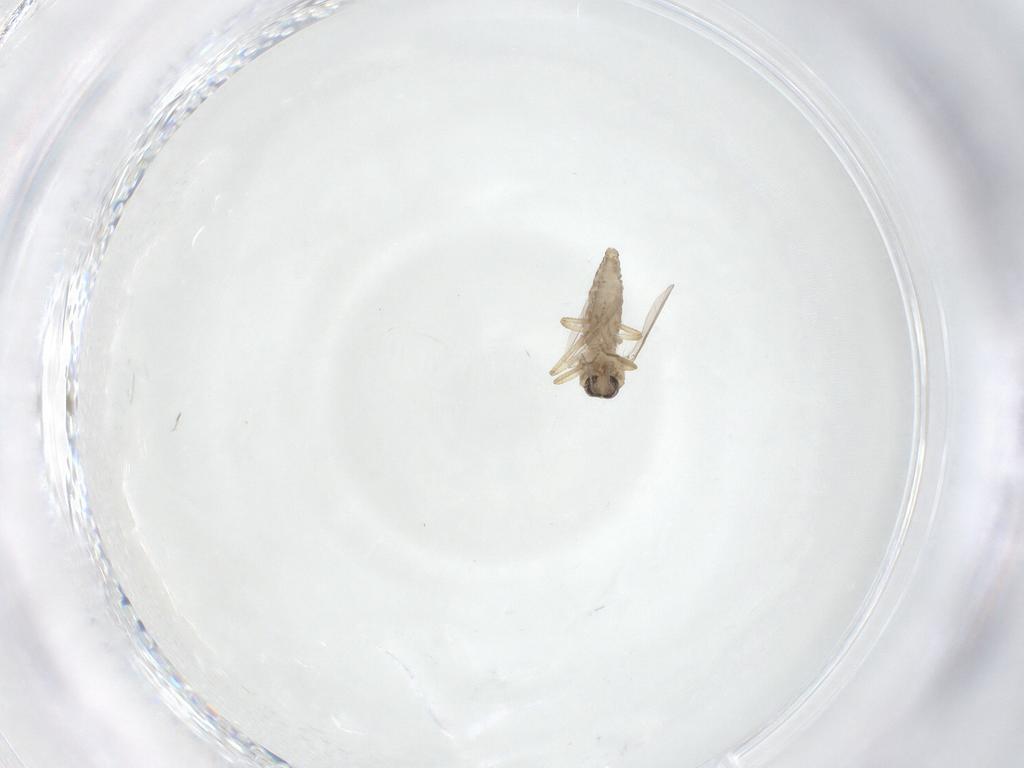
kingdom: Animalia
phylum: Arthropoda
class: Insecta
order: Diptera
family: Ceratopogonidae
